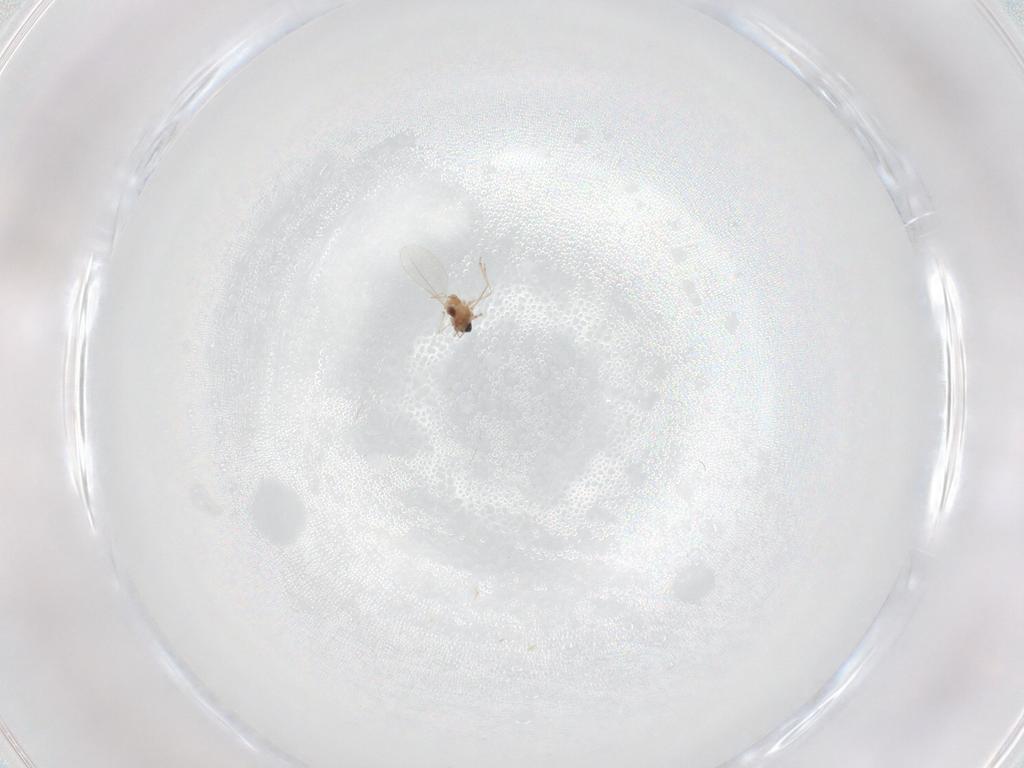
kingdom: Animalia
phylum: Arthropoda
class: Insecta
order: Diptera
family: Cecidomyiidae
